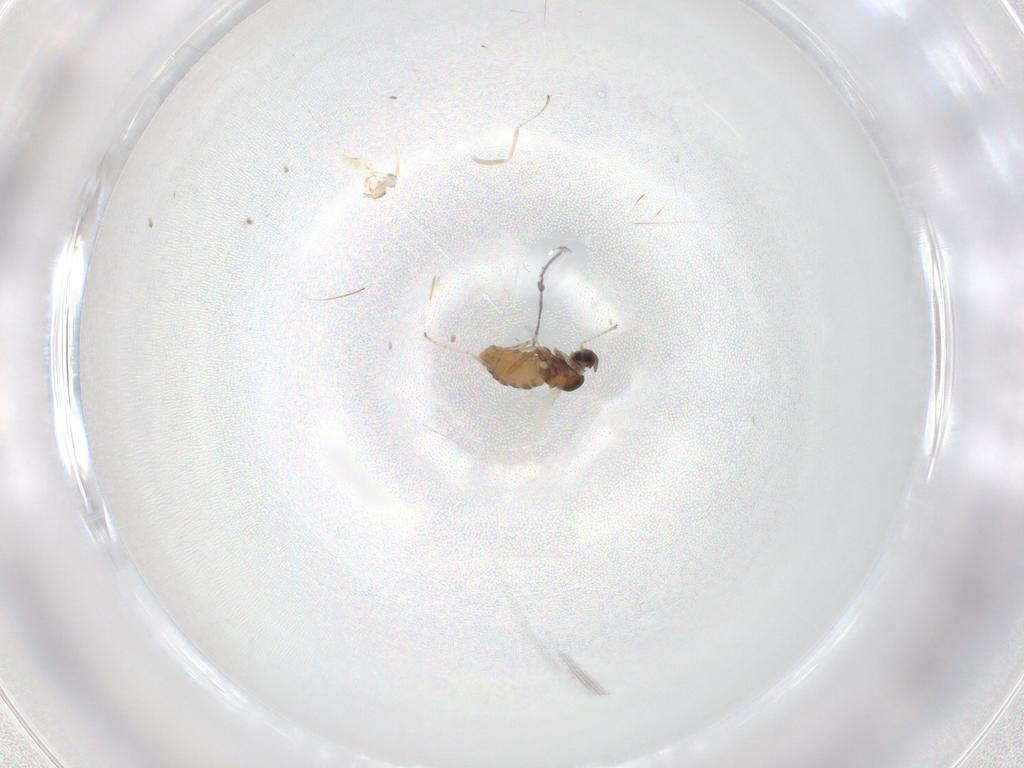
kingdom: Animalia
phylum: Arthropoda
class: Insecta
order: Diptera
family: Cecidomyiidae
